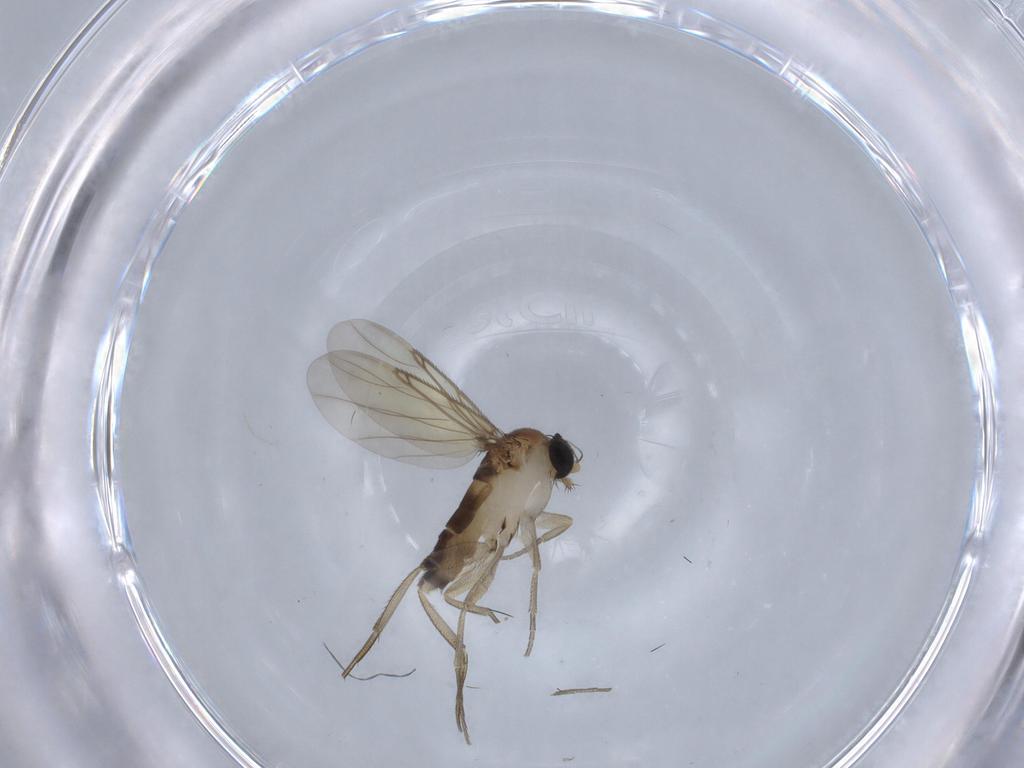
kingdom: Animalia
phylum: Arthropoda
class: Insecta
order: Diptera
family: Phoridae
